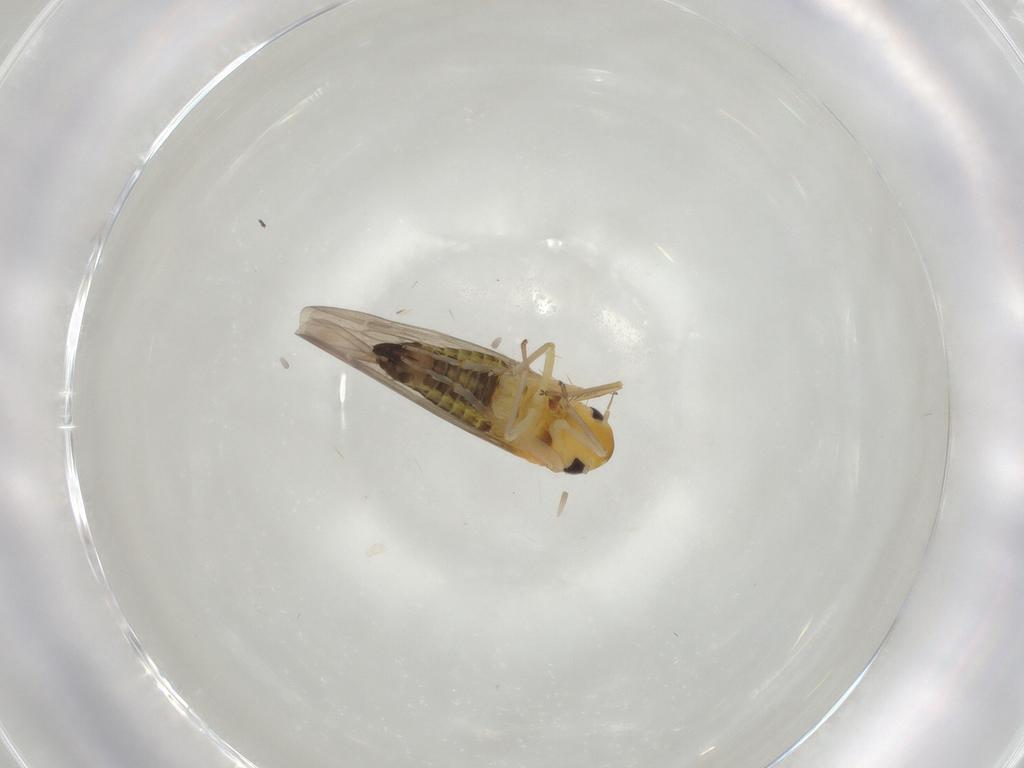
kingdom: Animalia
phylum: Arthropoda
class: Insecta
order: Hemiptera
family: Cicadellidae
